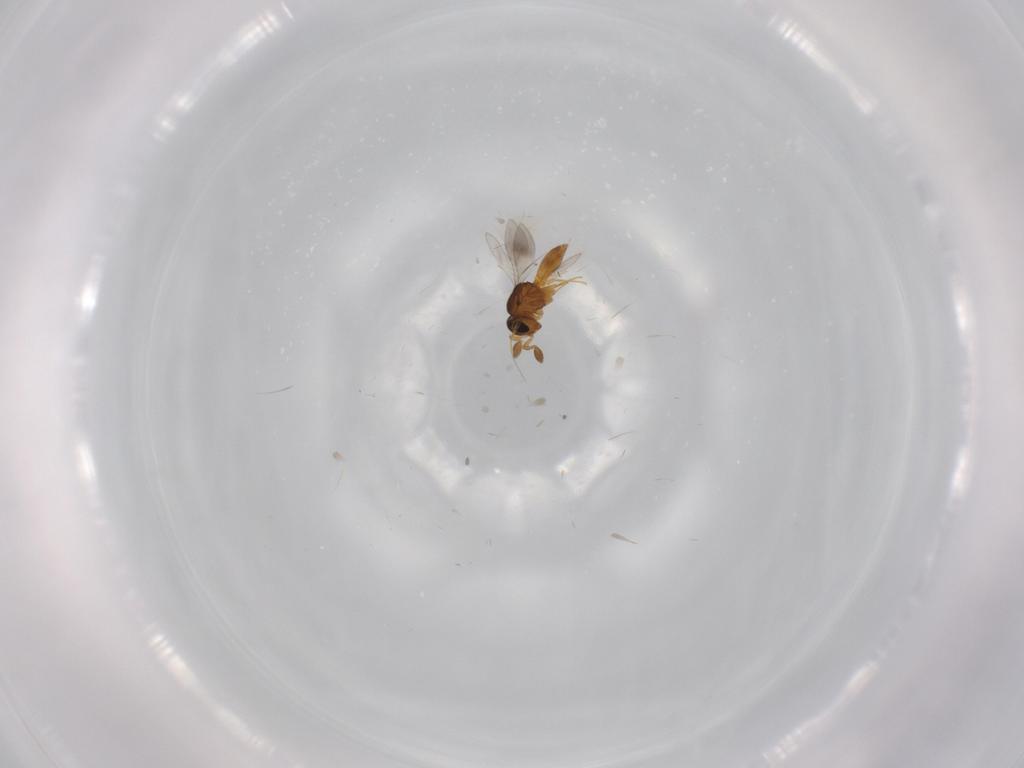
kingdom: Animalia
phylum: Arthropoda
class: Insecta
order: Hymenoptera
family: Scelionidae
